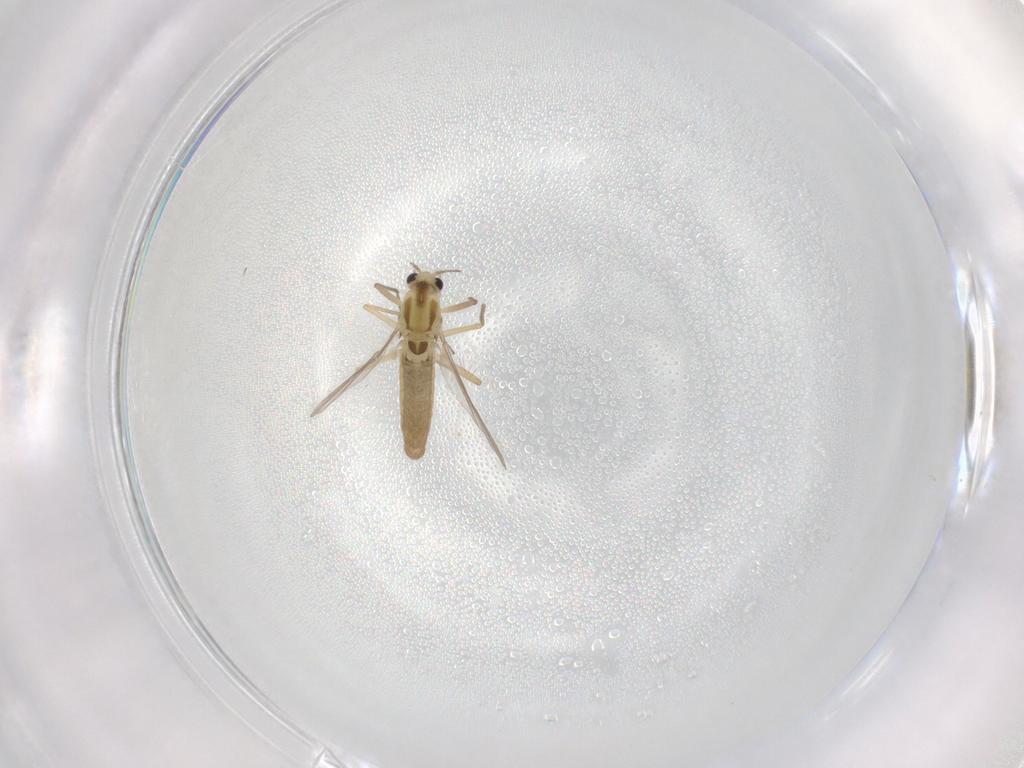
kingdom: Animalia
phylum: Arthropoda
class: Insecta
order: Diptera
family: Chironomidae
